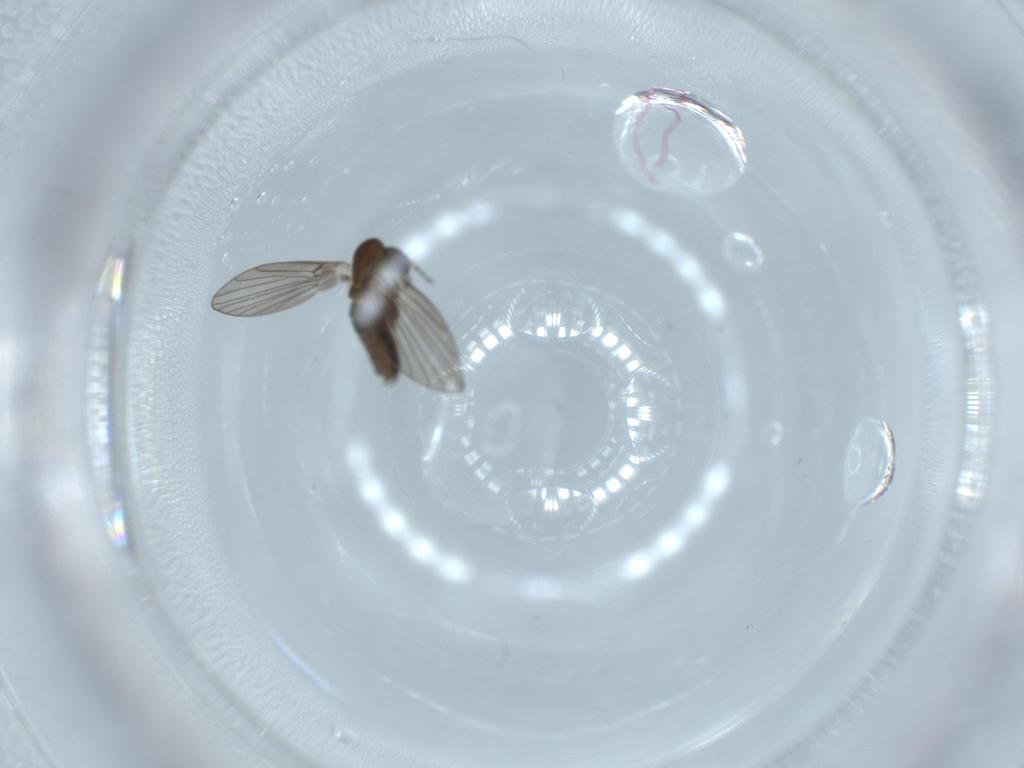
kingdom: Animalia
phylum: Arthropoda
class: Insecta
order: Diptera
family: Psychodidae
